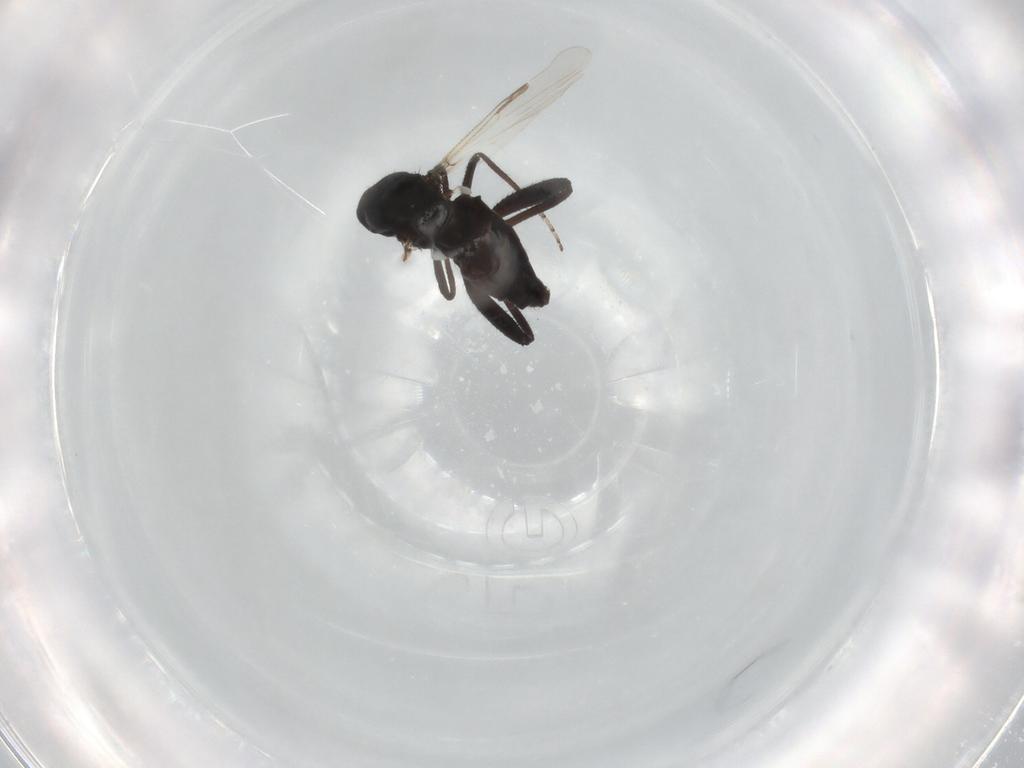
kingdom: Animalia
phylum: Arthropoda
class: Insecta
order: Diptera
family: Ceratopogonidae
